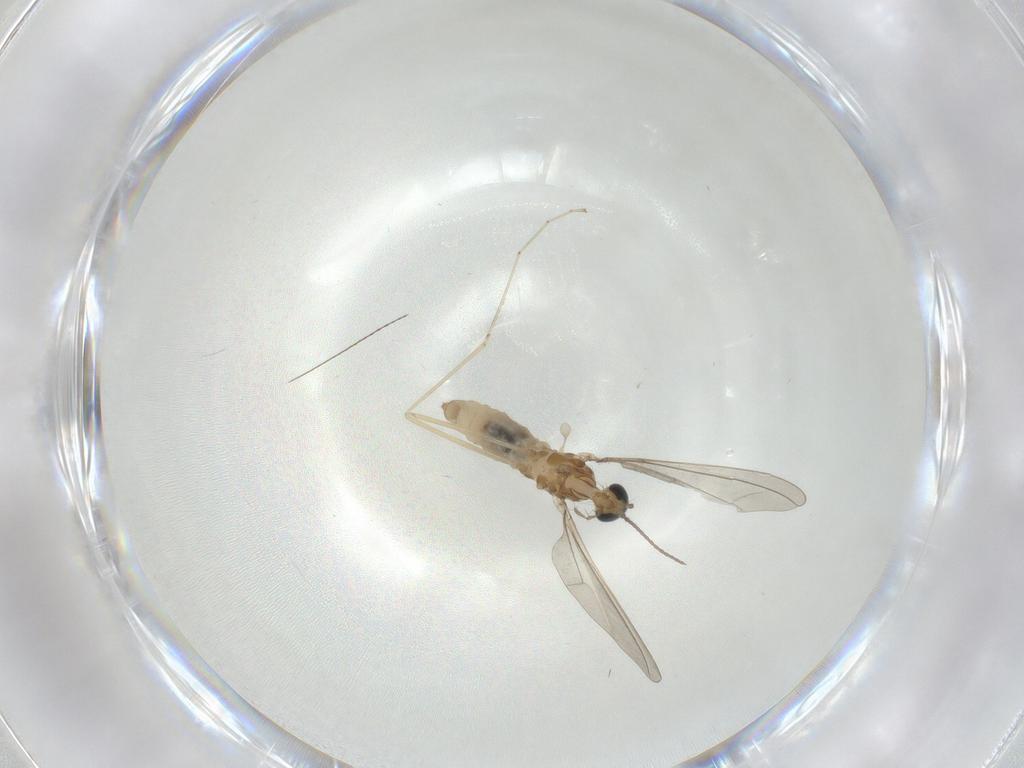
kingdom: Animalia
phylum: Arthropoda
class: Insecta
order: Diptera
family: Cecidomyiidae
